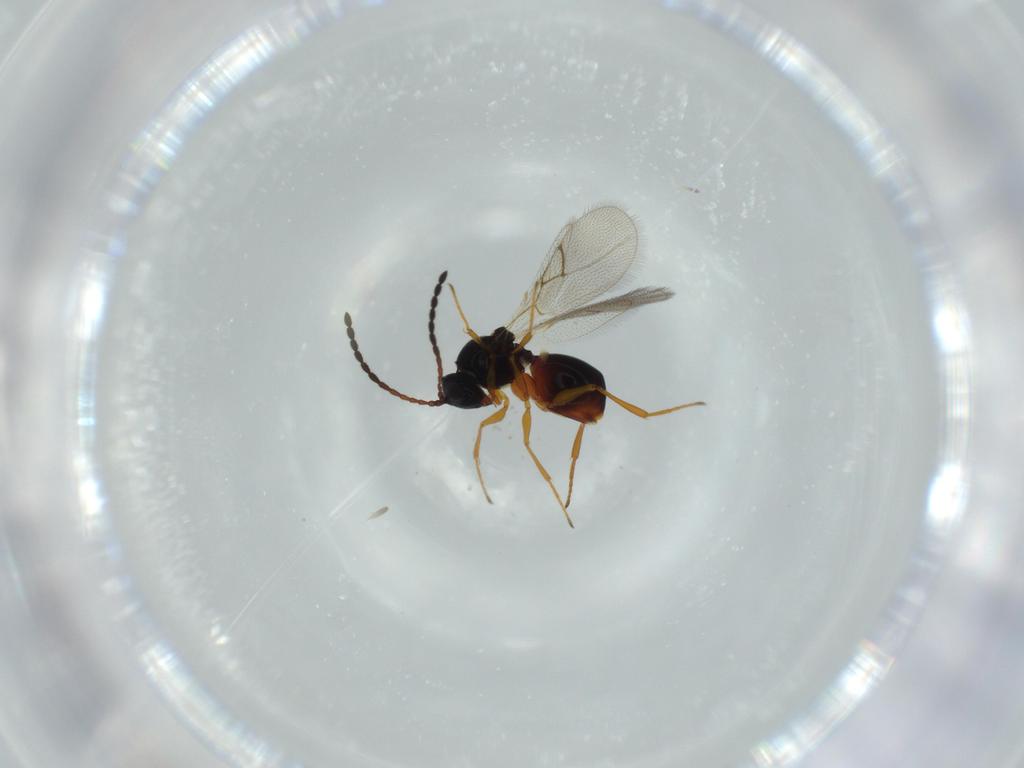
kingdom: Animalia
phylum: Arthropoda
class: Insecta
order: Hymenoptera
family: Figitidae
